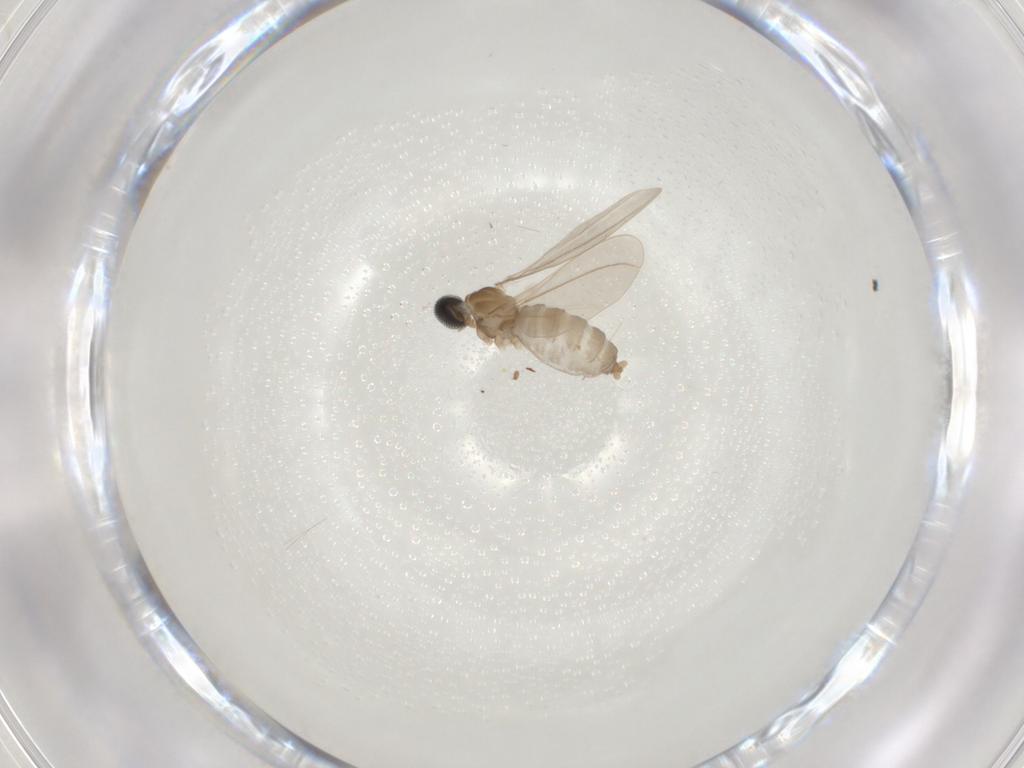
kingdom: Animalia
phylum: Arthropoda
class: Insecta
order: Diptera
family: Cecidomyiidae
